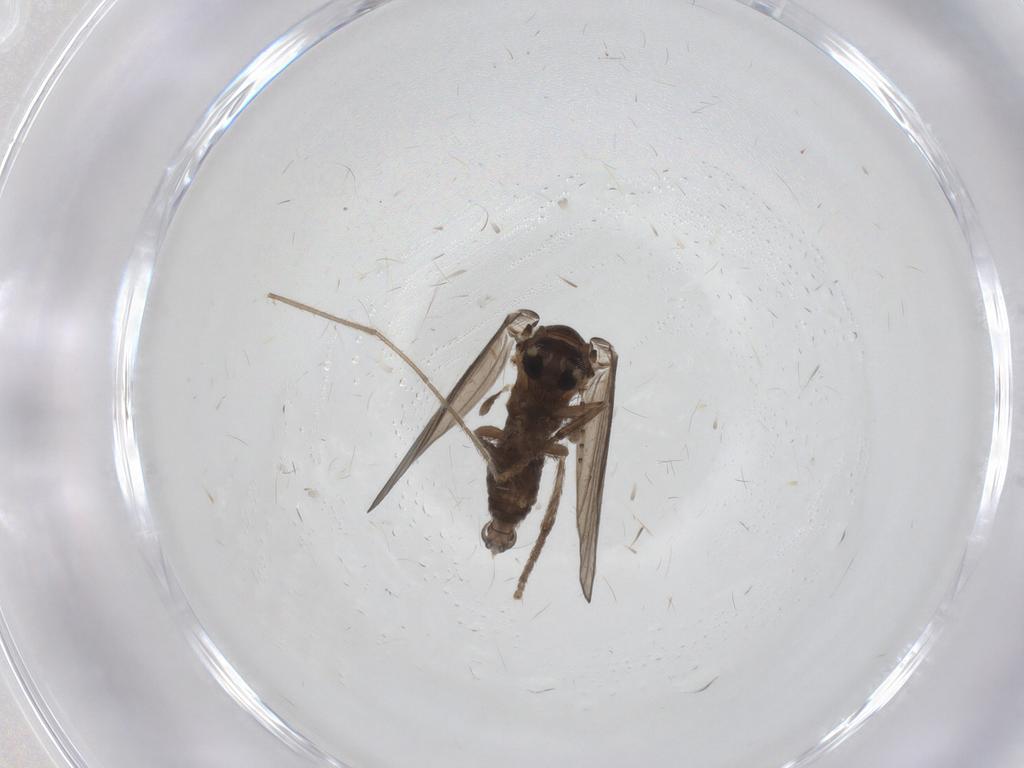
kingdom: Animalia
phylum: Arthropoda
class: Insecta
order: Diptera
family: Psychodidae
